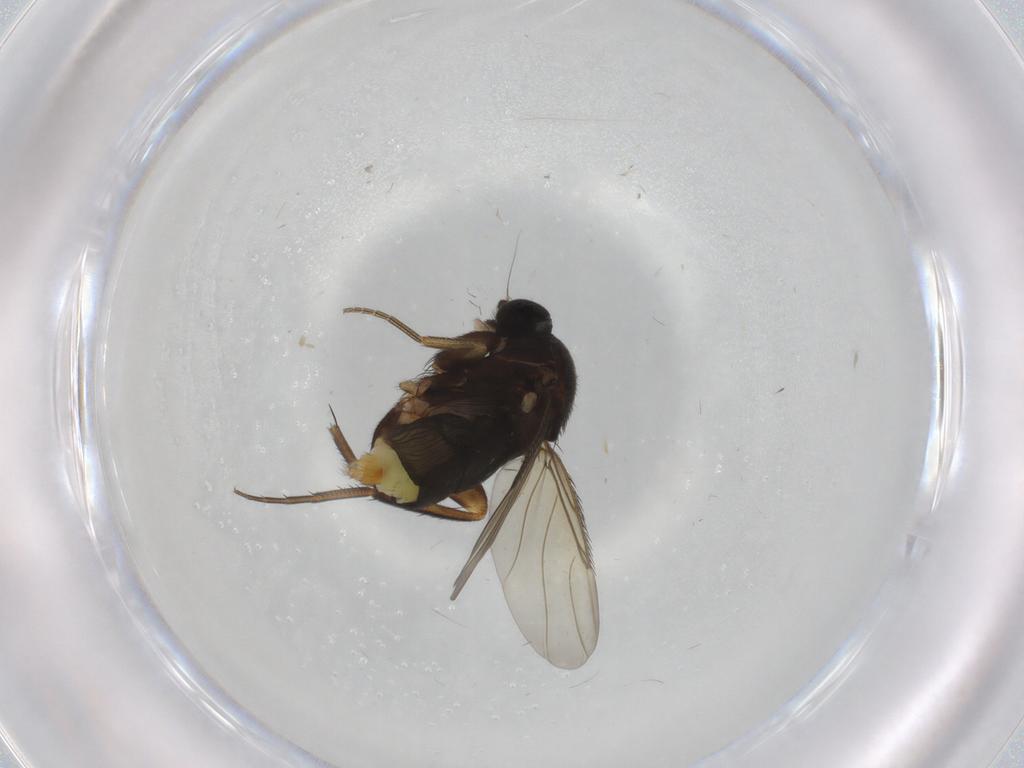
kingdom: Animalia
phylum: Arthropoda
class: Insecta
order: Diptera
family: Phoridae
